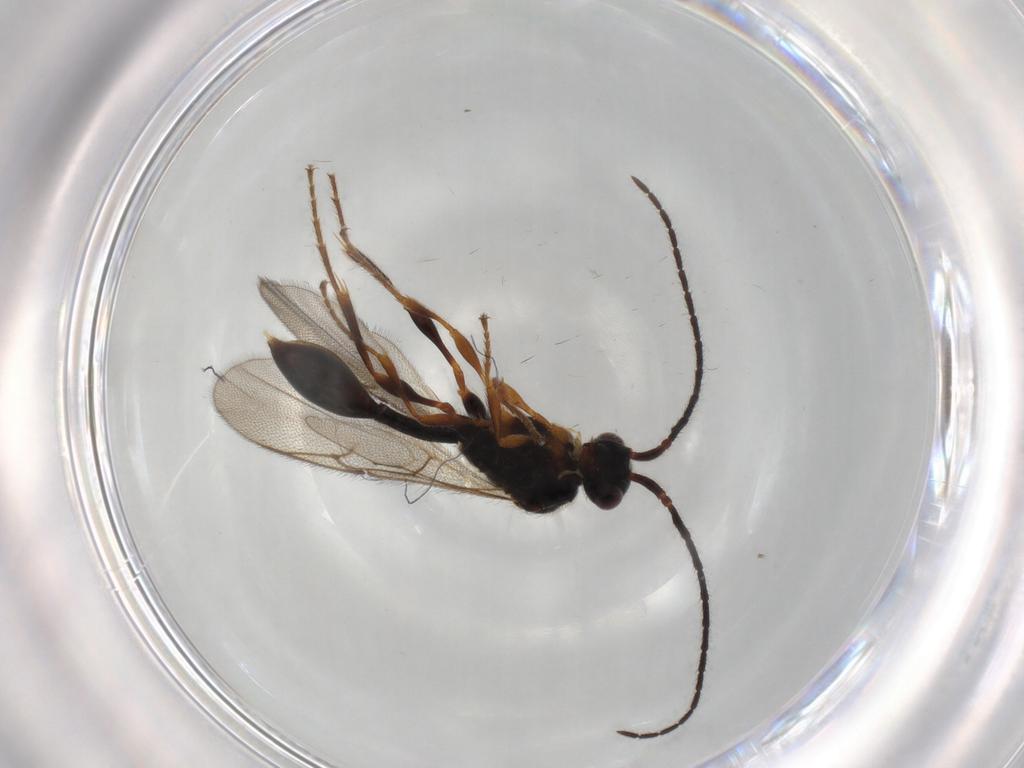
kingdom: Animalia
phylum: Arthropoda
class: Insecta
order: Hymenoptera
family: Diapriidae
